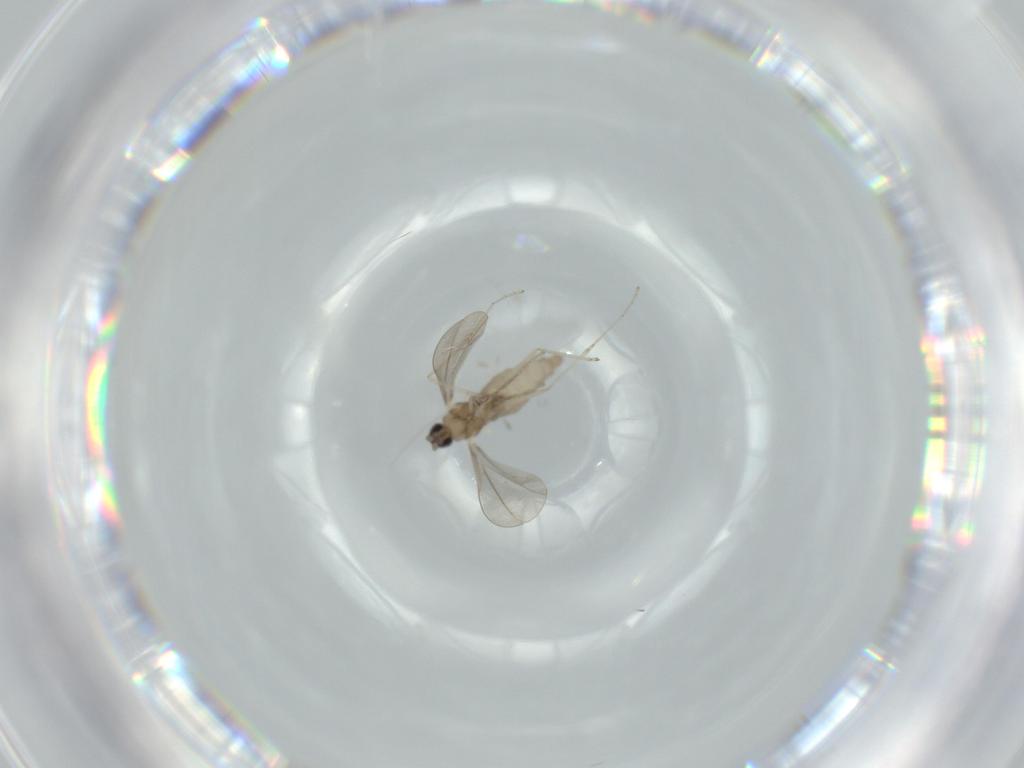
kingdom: Animalia
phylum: Arthropoda
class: Insecta
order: Diptera
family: Cecidomyiidae
